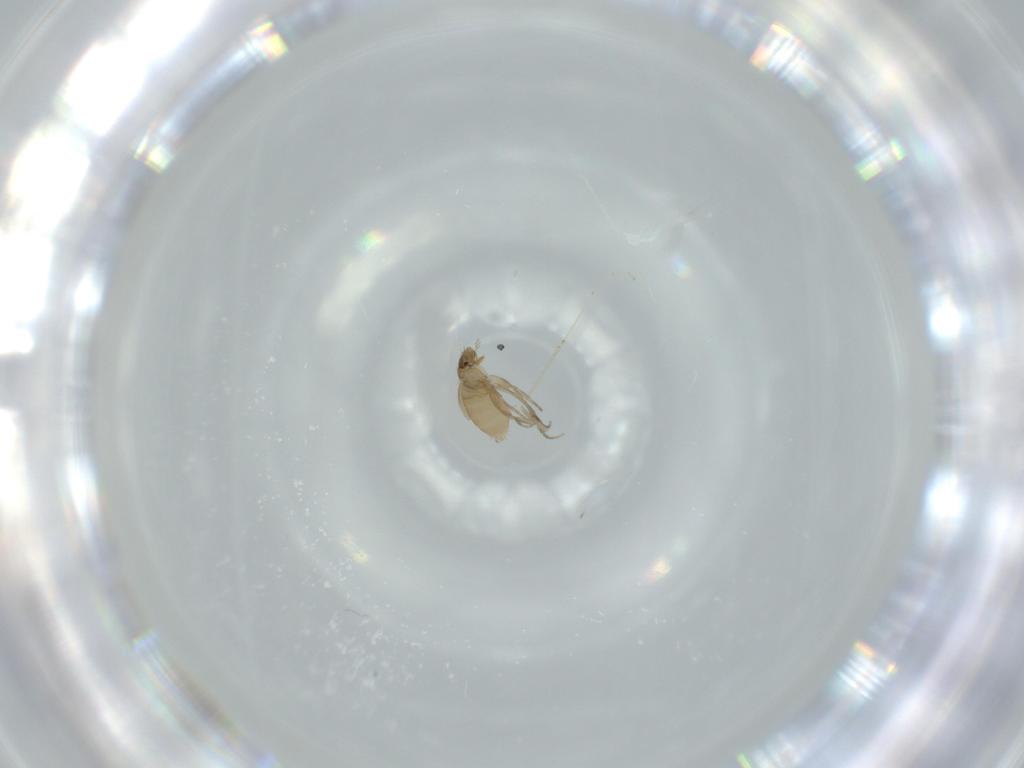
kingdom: Animalia
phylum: Arthropoda
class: Insecta
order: Diptera
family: Phoridae
